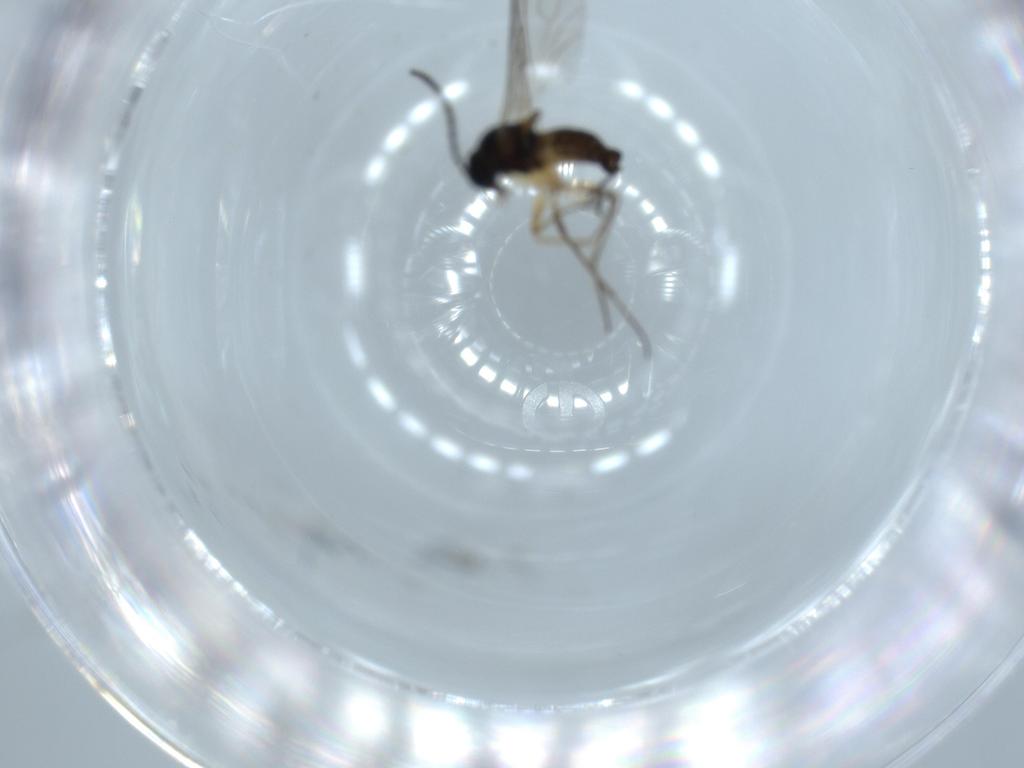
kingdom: Animalia
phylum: Arthropoda
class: Insecta
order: Diptera
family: Sciaridae
